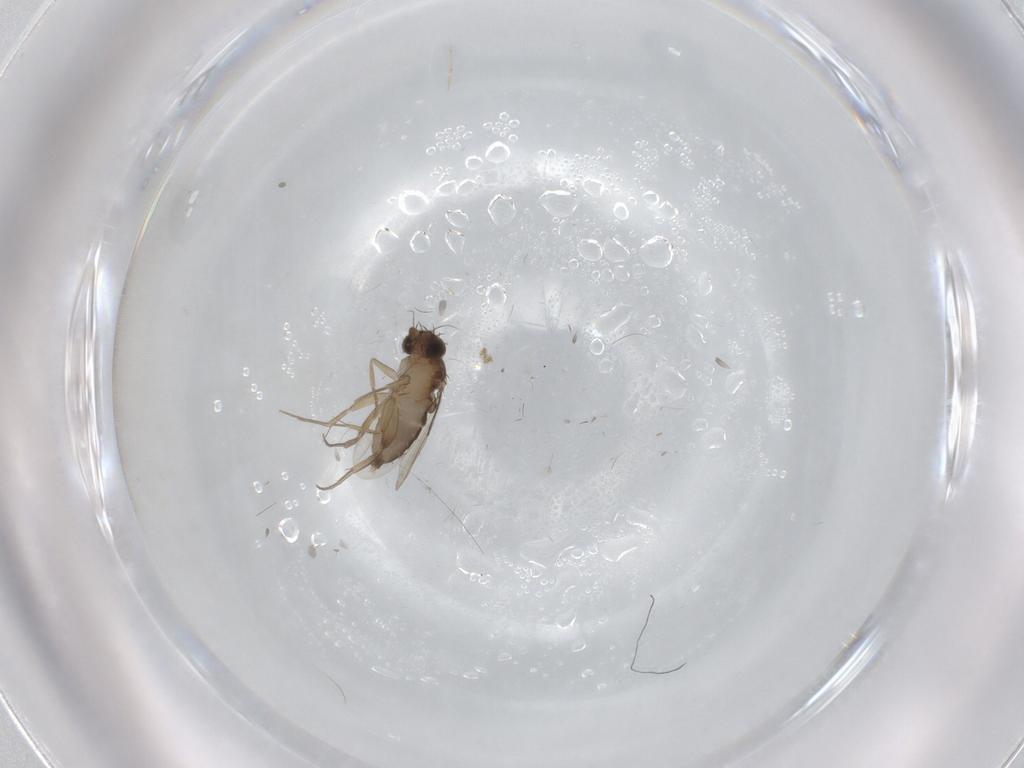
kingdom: Animalia
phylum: Arthropoda
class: Insecta
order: Diptera
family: Phoridae
